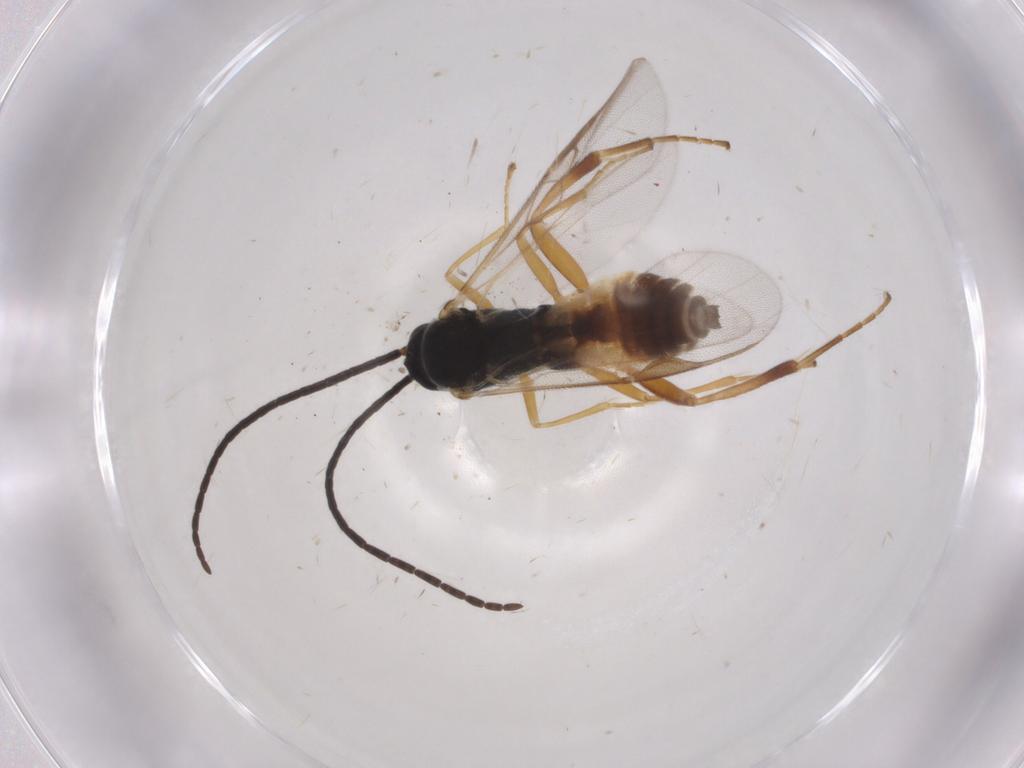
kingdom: Animalia
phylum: Arthropoda
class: Insecta
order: Hymenoptera
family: Braconidae
